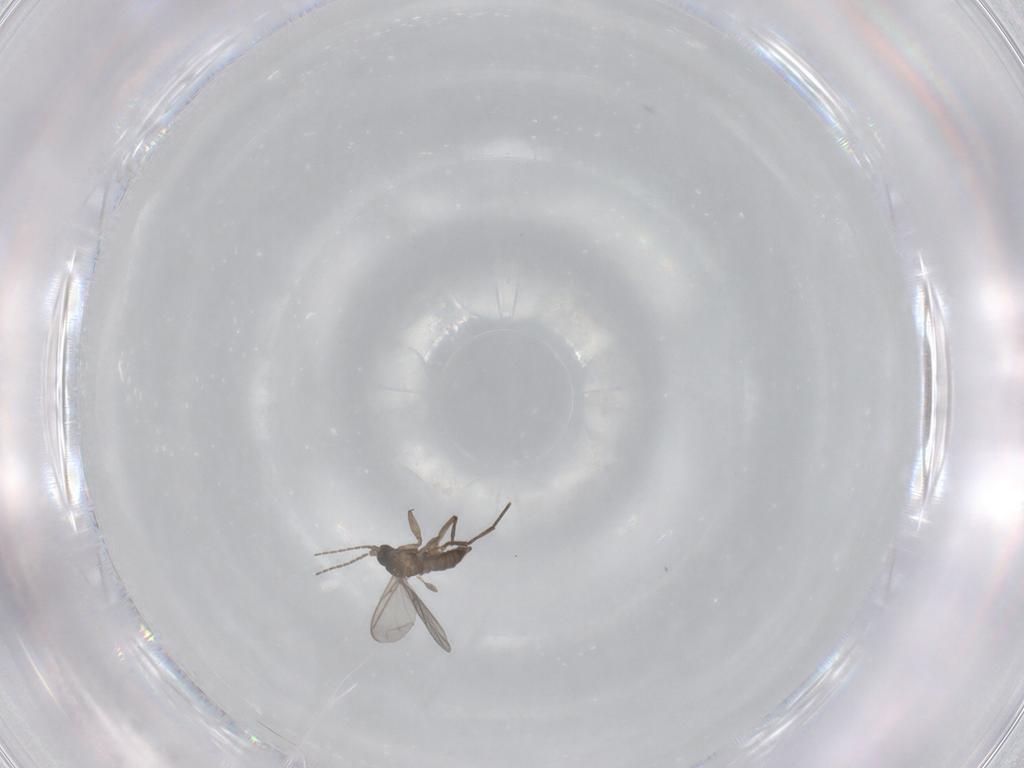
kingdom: Animalia
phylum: Arthropoda
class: Insecta
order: Diptera
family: Sciaridae
